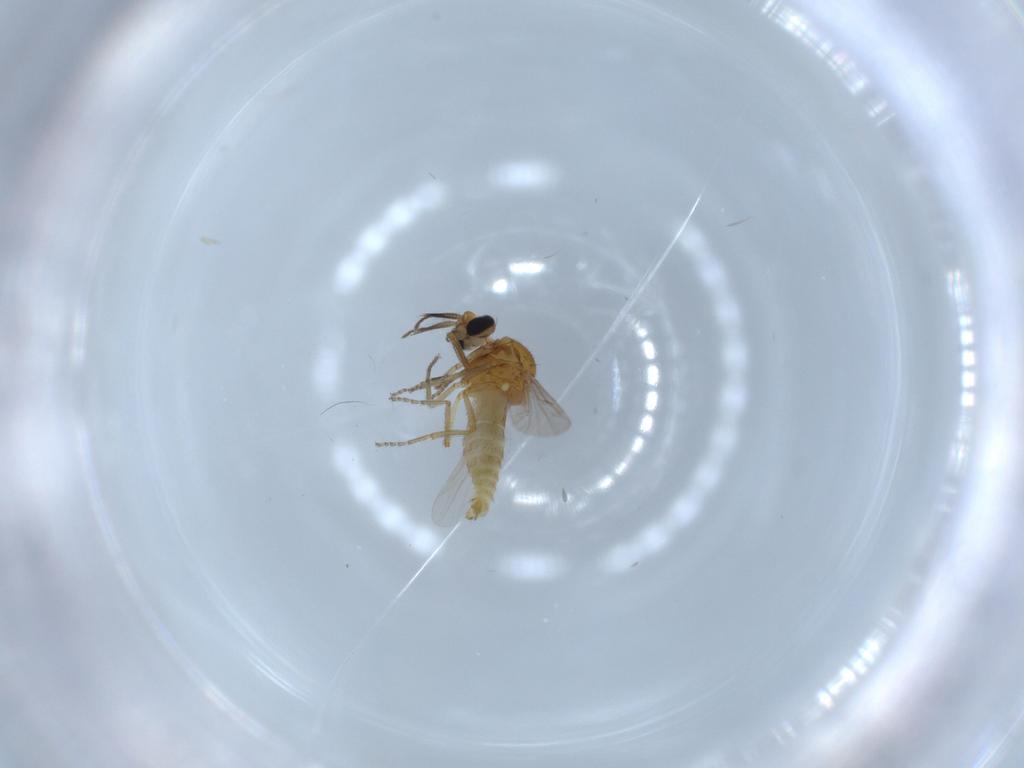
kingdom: Animalia
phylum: Arthropoda
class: Insecta
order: Diptera
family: Ceratopogonidae
